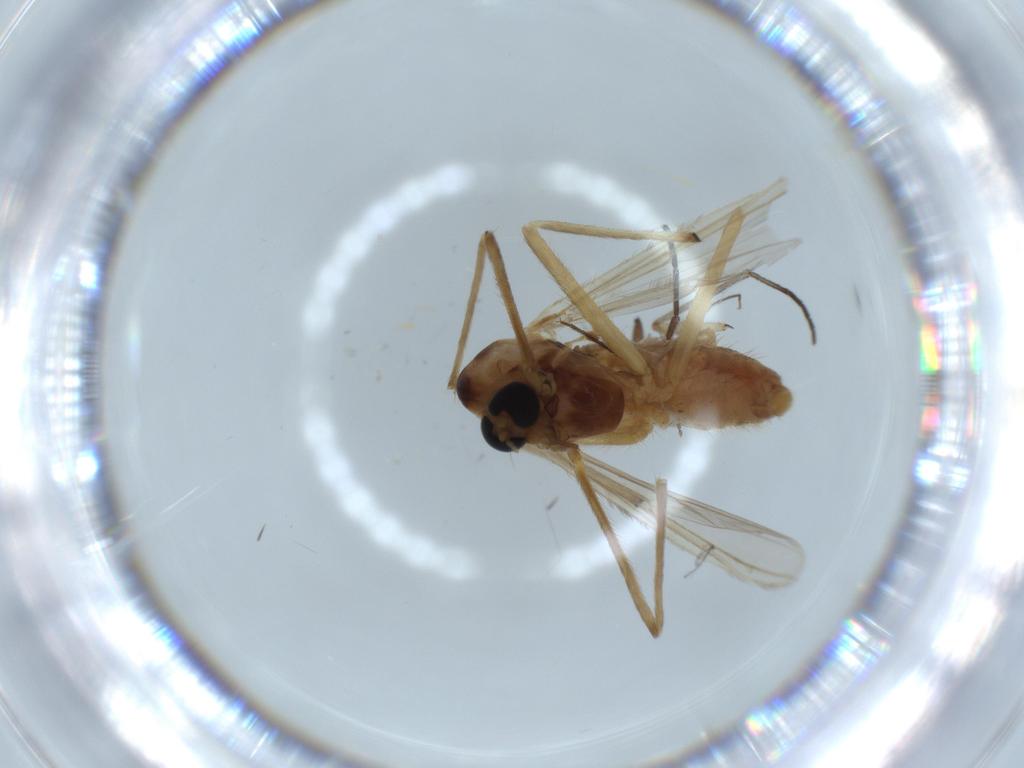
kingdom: Animalia
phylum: Arthropoda
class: Insecta
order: Diptera
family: Chironomidae
